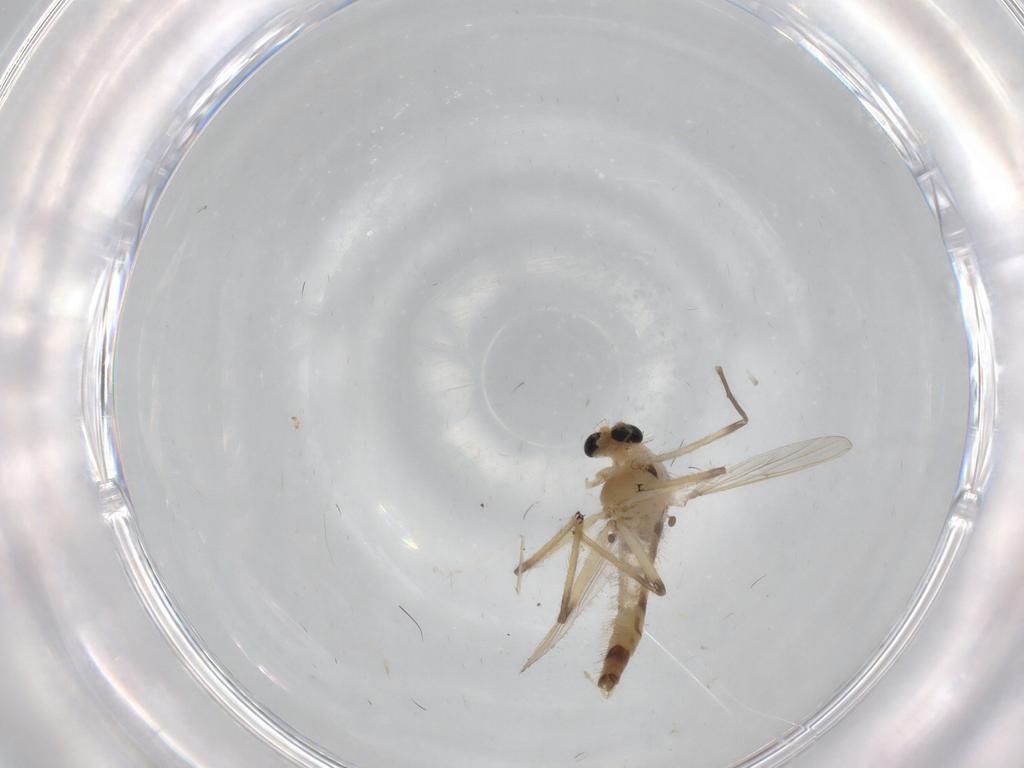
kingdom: Animalia
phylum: Arthropoda
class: Insecta
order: Diptera
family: Chironomidae
